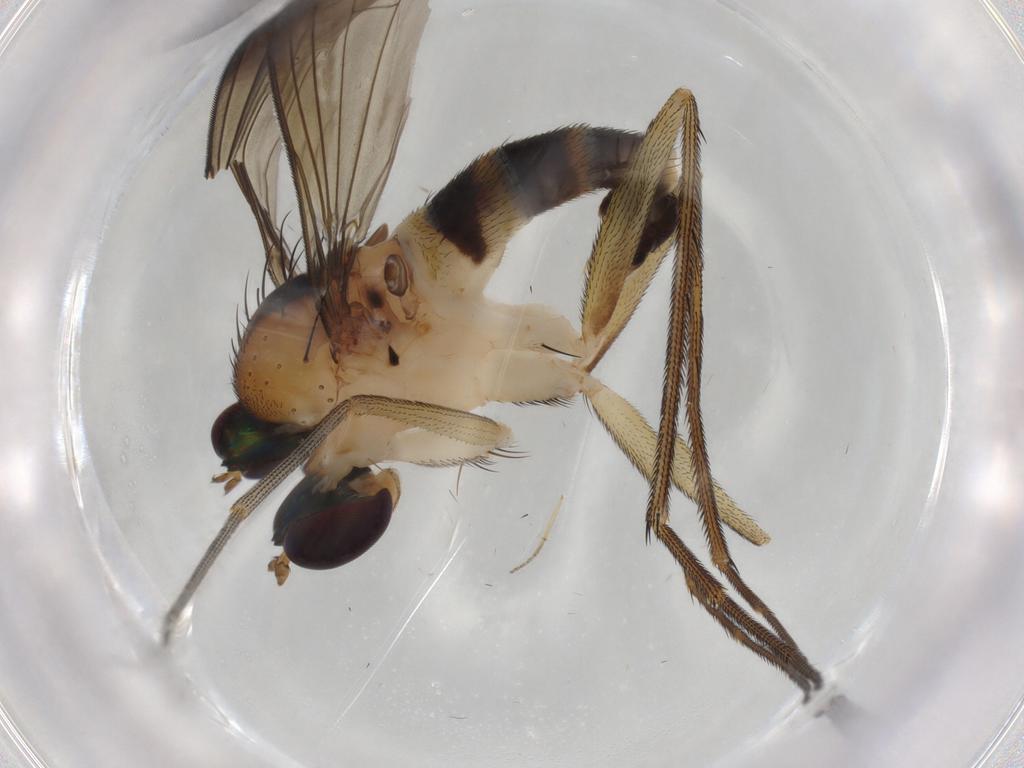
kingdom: Animalia
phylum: Arthropoda
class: Insecta
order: Diptera
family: Dolichopodidae
